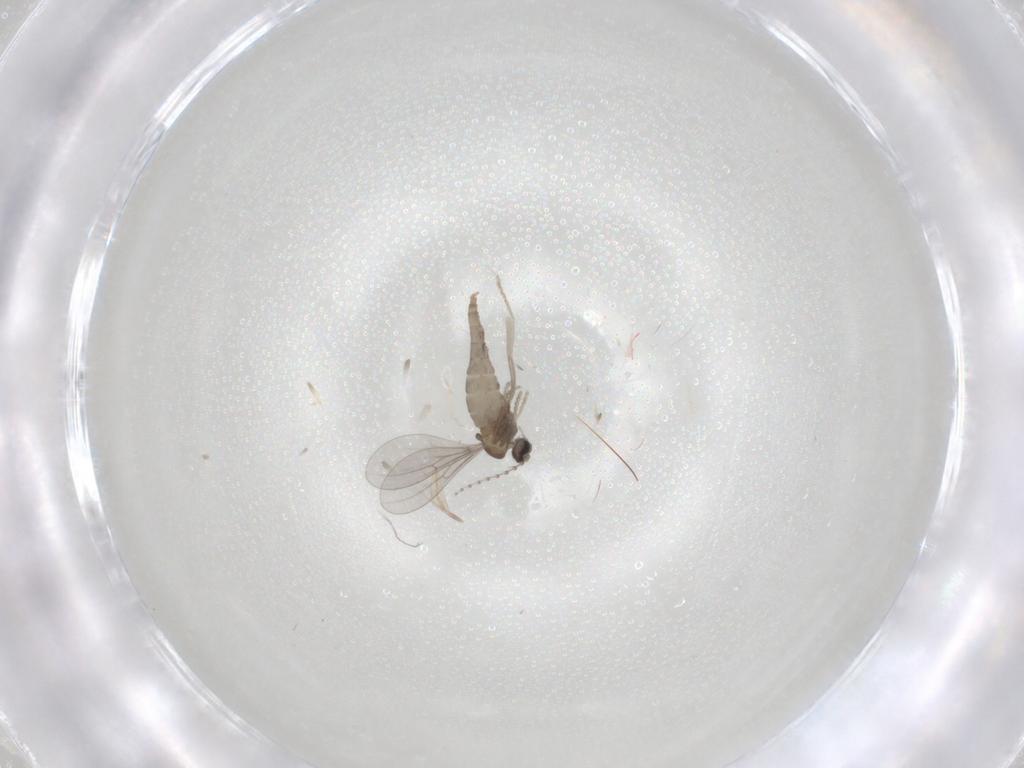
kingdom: Animalia
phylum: Arthropoda
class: Insecta
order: Diptera
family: Cecidomyiidae
